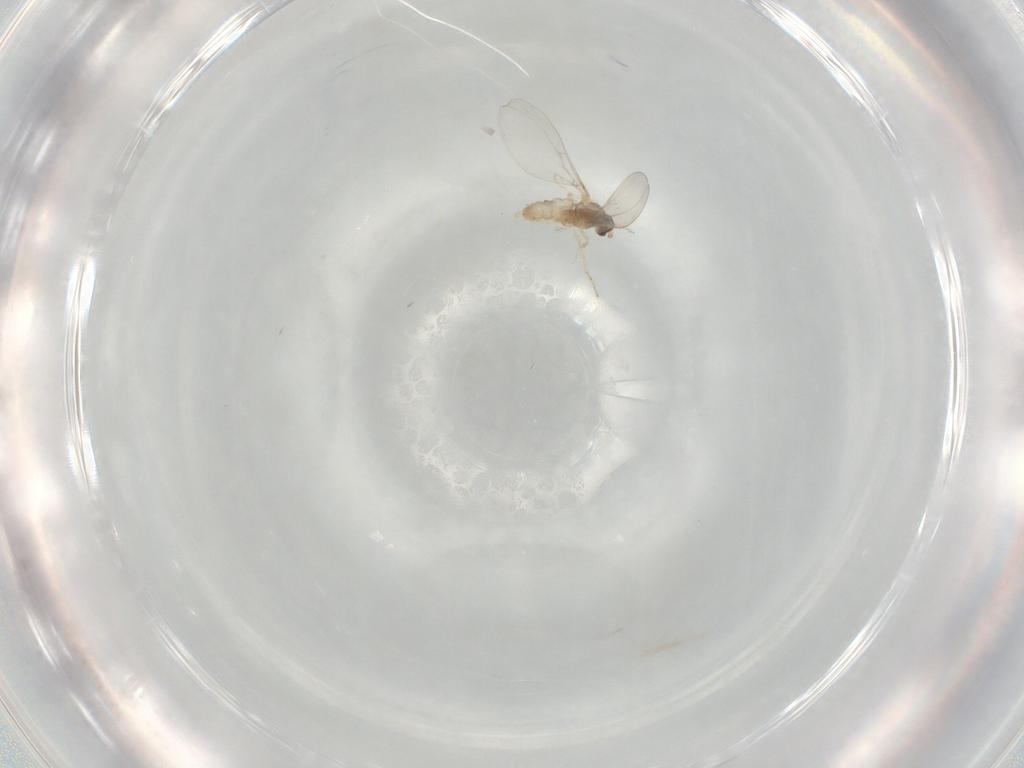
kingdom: Animalia
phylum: Arthropoda
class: Insecta
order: Diptera
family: Cecidomyiidae
